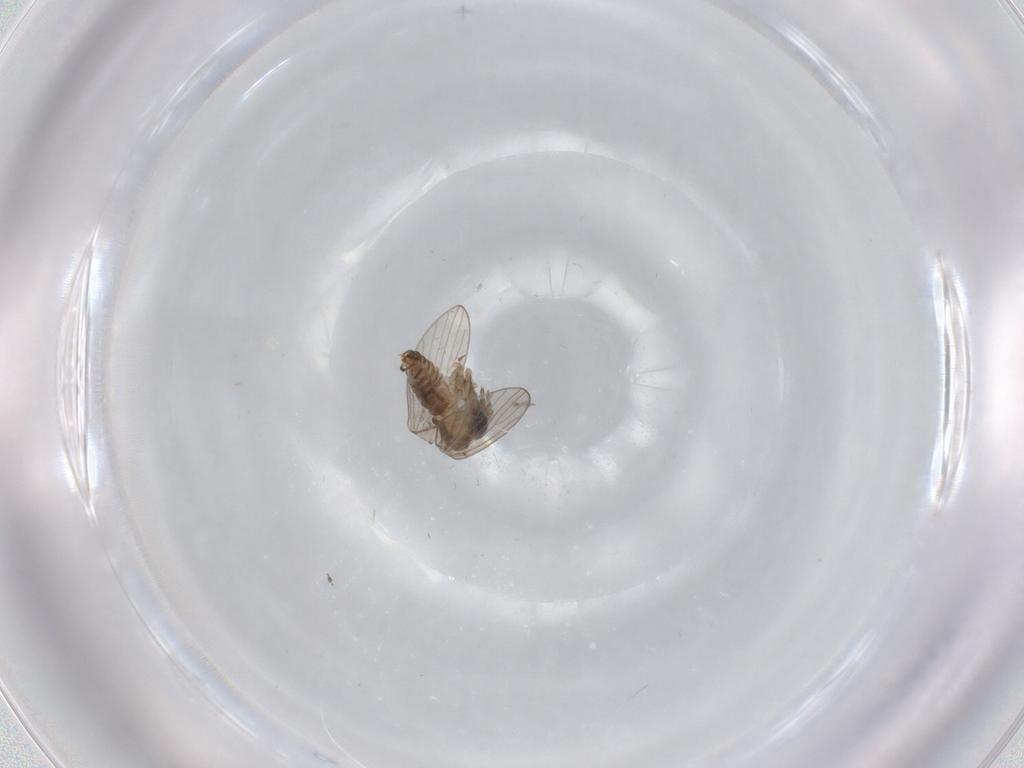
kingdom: Animalia
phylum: Arthropoda
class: Insecta
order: Diptera
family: Psychodidae
